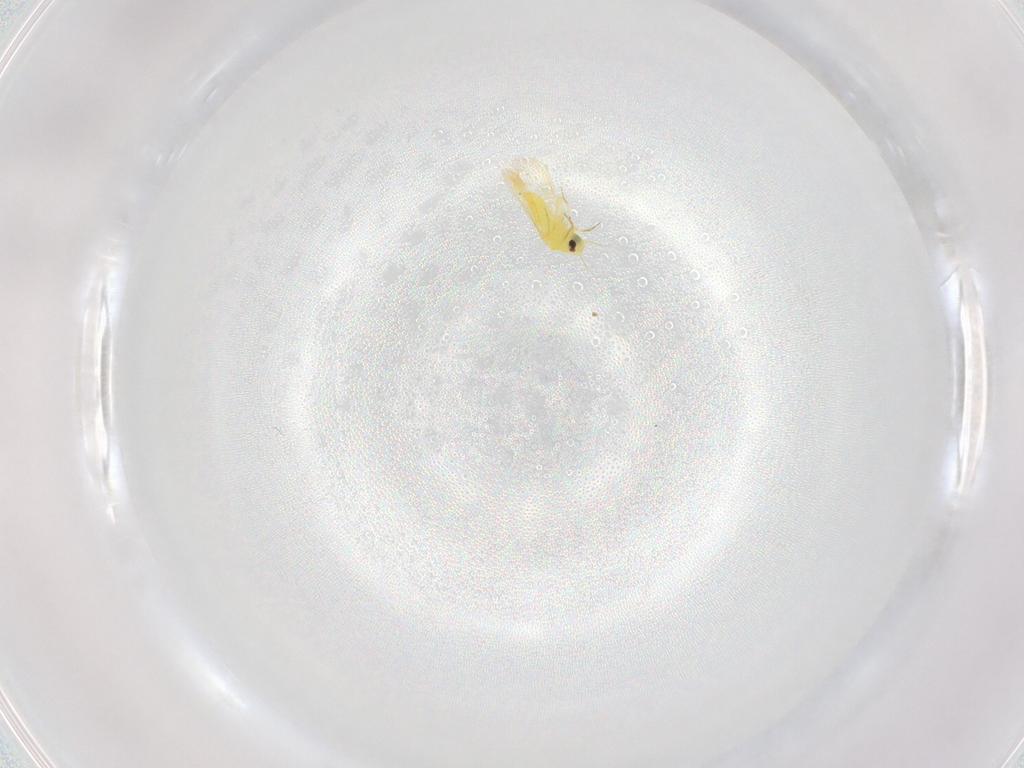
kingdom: Animalia
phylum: Arthropoda
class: Insecta
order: Hemiptera
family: Aleyrodidae
